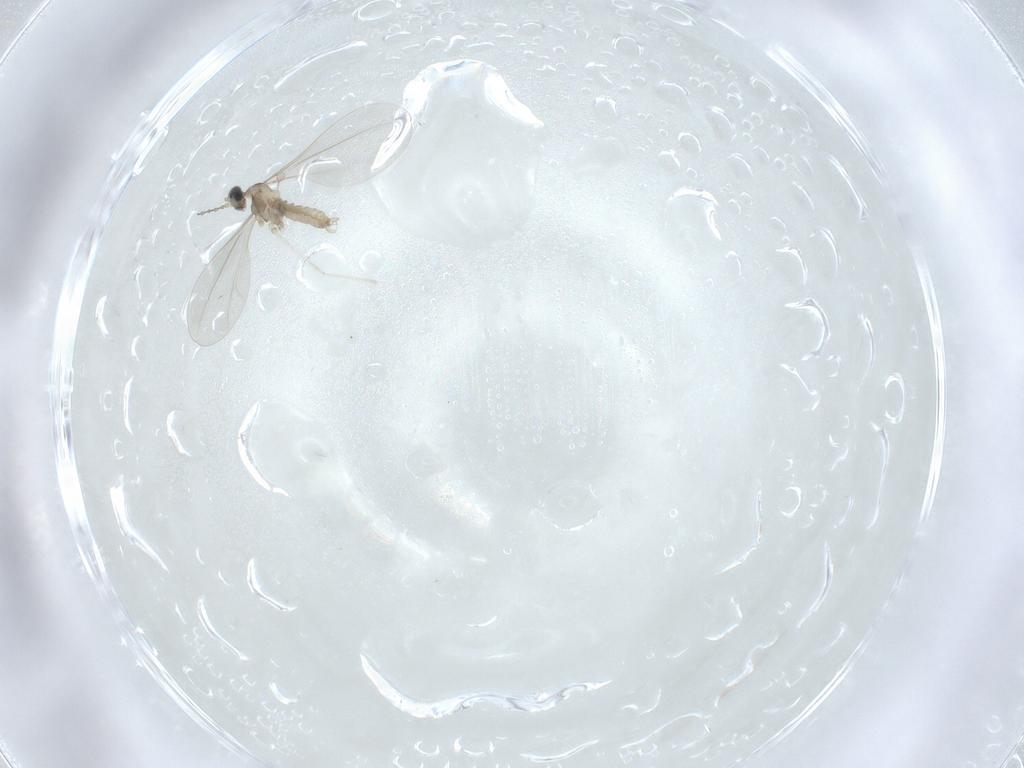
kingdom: Animalia
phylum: Arthropoda
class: Insecta
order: Diptera
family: Cecidomyiidae
